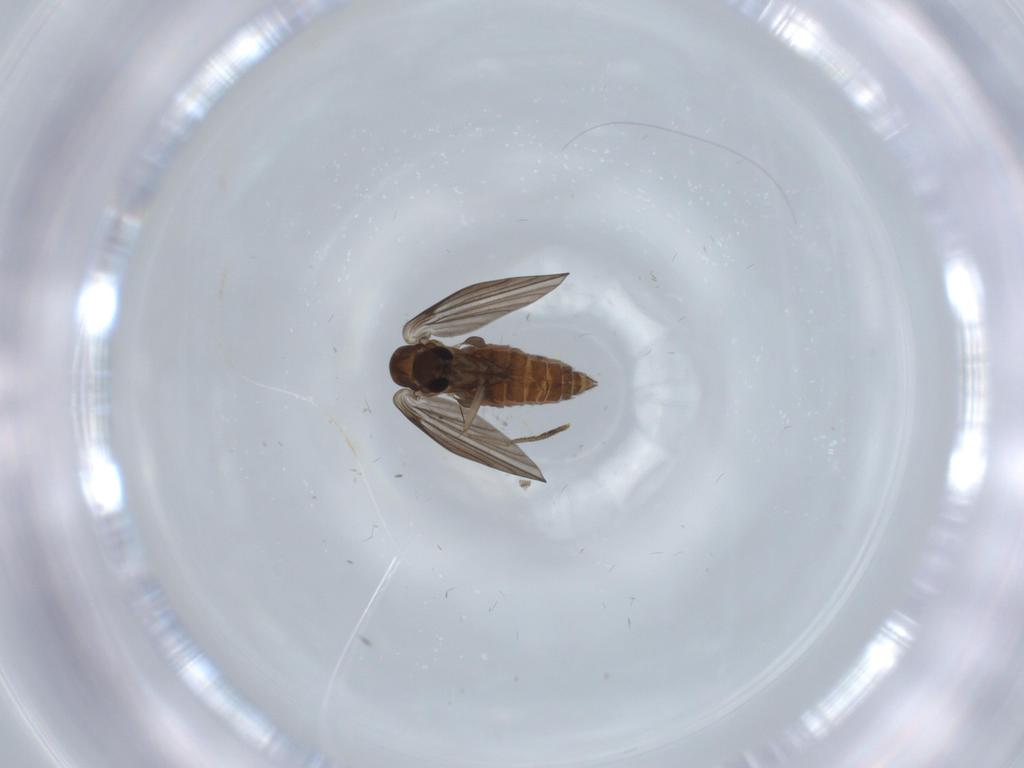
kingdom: Animalia
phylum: Arthropoda
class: Insecta
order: Diptera
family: Psychodidae
